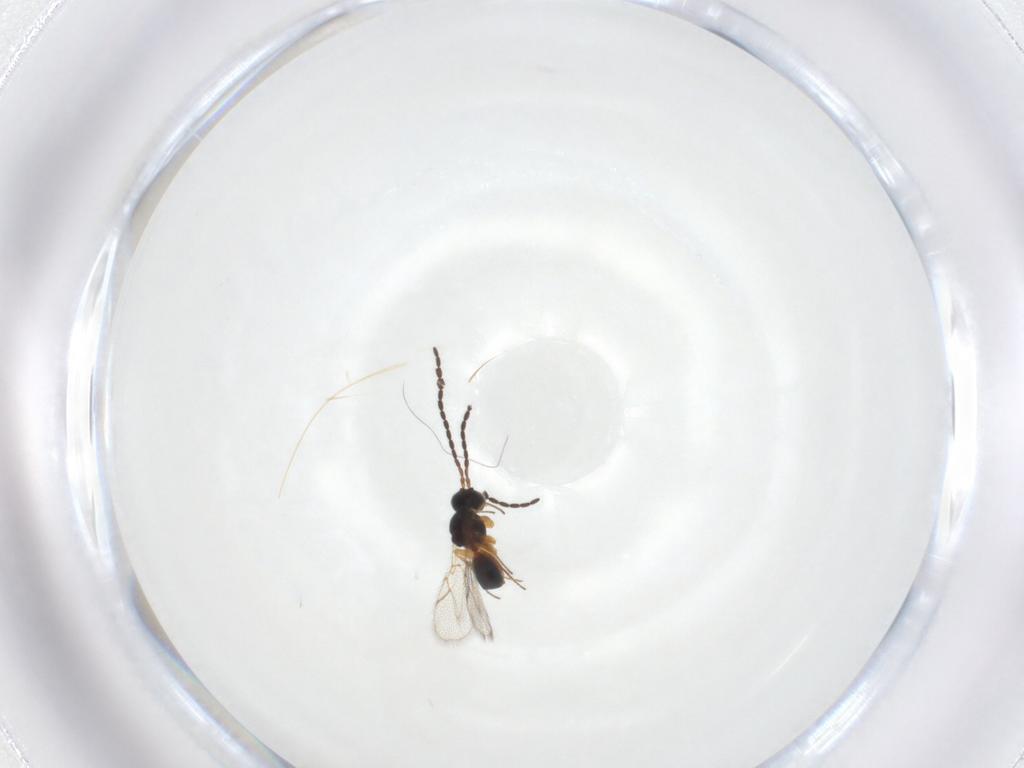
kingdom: Animalia
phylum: Arthropoda
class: Insecta
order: Hymenoptera
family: Figitidae
